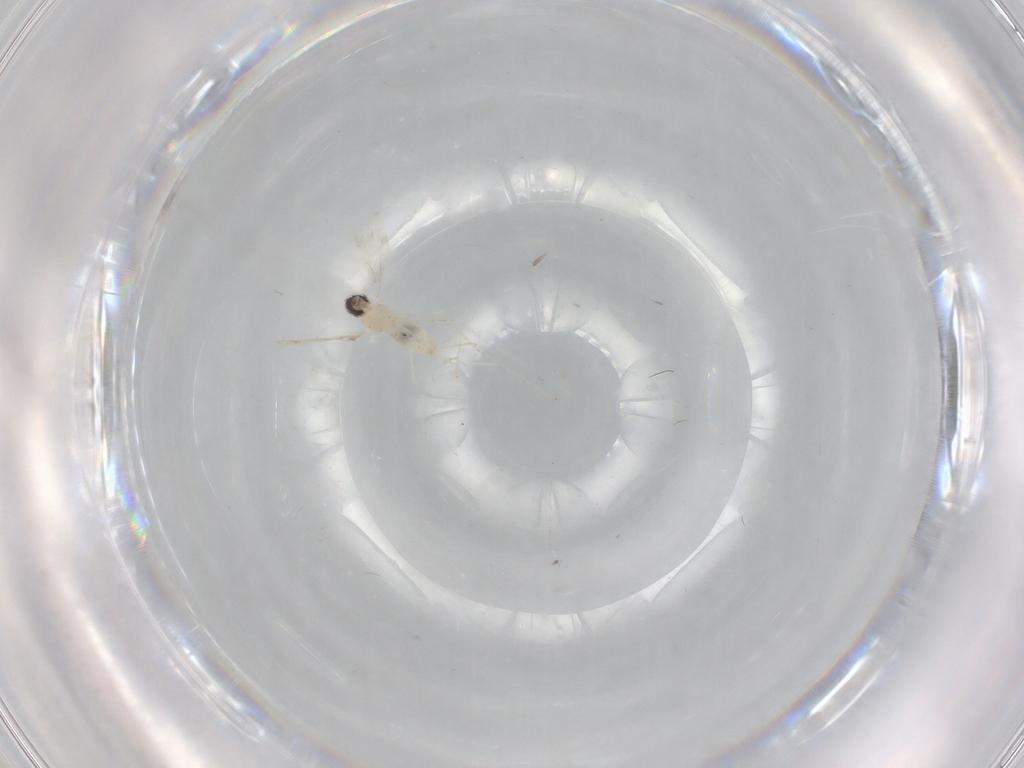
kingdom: Animalia
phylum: Arthropoda
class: Insecta
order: Diptera
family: Cecidomyiidae
